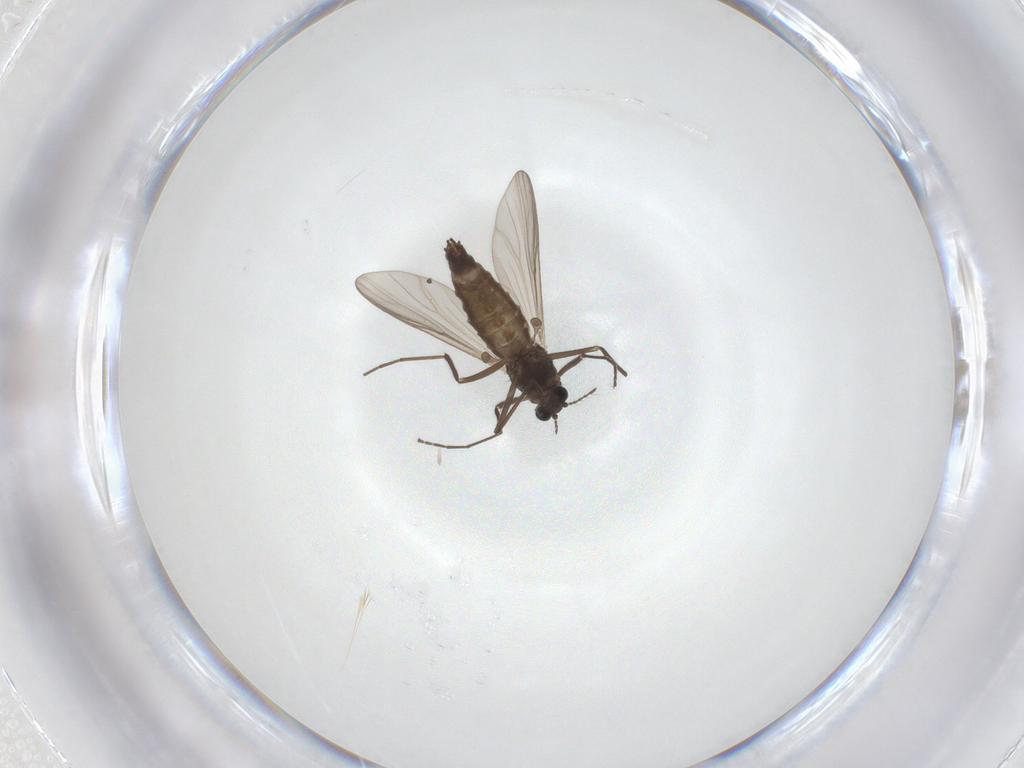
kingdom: Animalia
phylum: Arthropoda
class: Insecta
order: Diptera
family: Chironomidae
